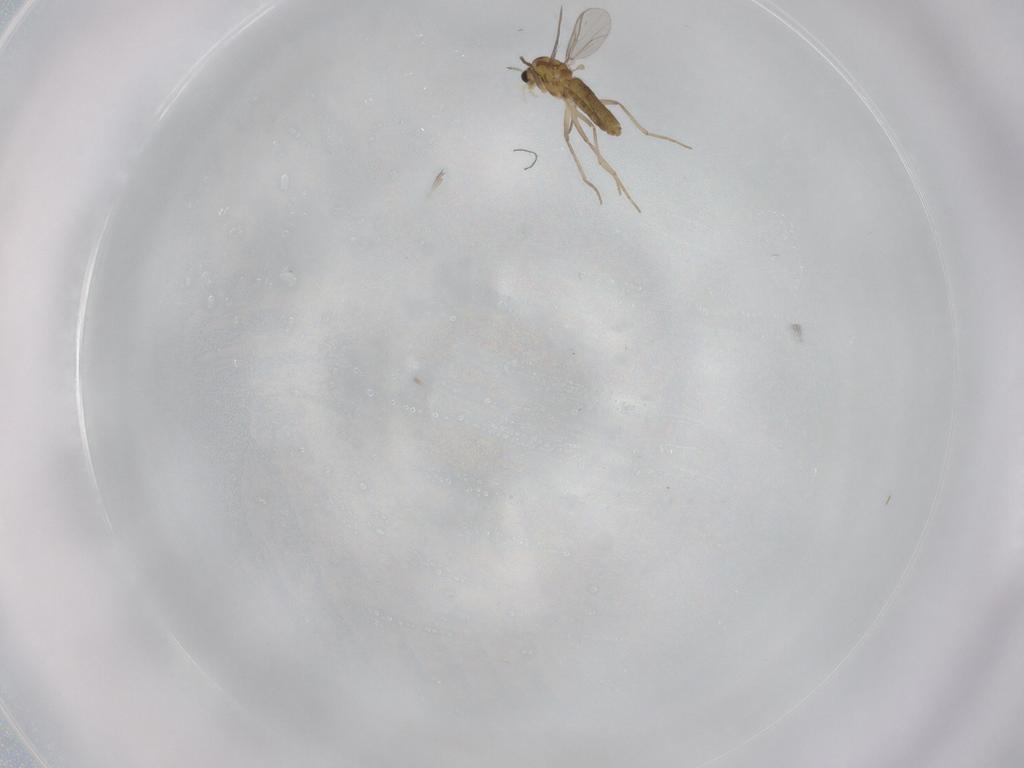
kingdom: Animalia
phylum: Arthropoda
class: Insecta
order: Diptera
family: Chironomidae
